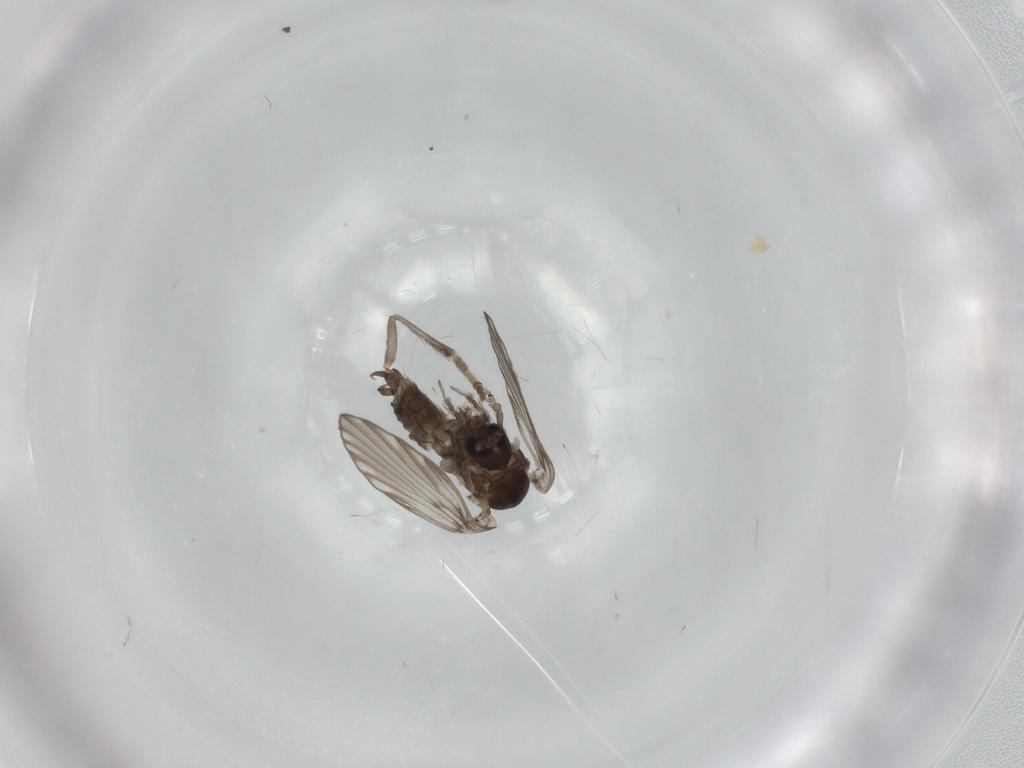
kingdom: Animalia
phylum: Arthropoda
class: Insecta
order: Diptera
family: Psychodidae
